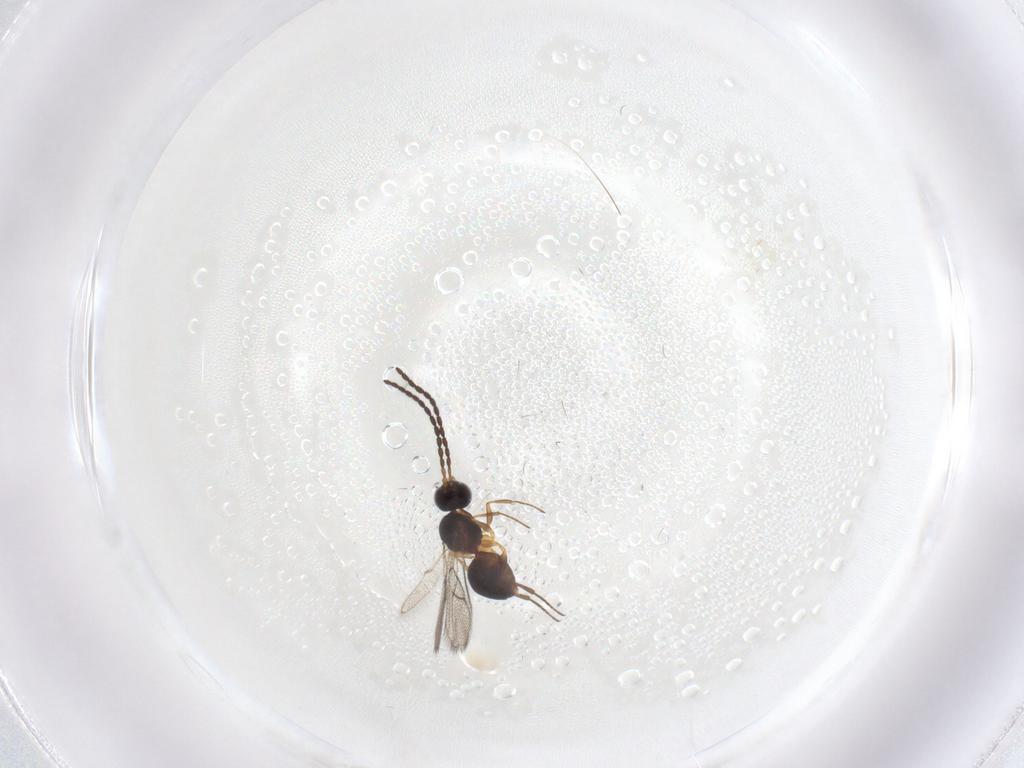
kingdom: Animalia
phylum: Arthropoda
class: Insecta
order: Hymenoptera
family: Figitidae
